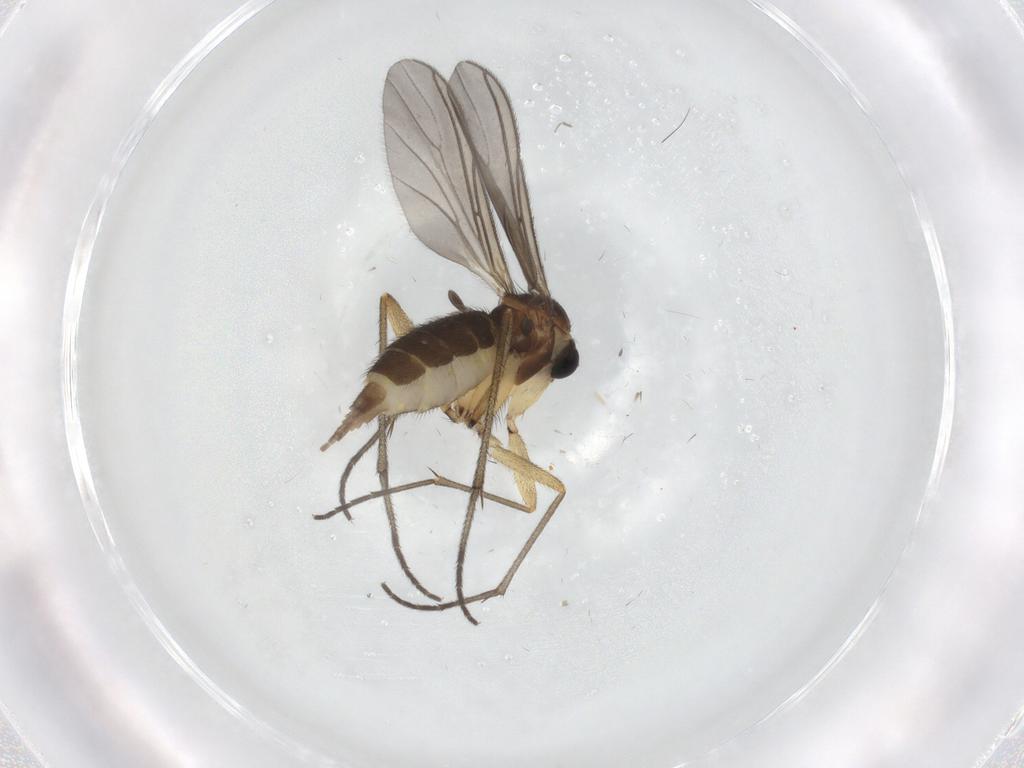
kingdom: Animalia
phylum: Arthropoda
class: Insecta
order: Diptera
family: Sciaridae
